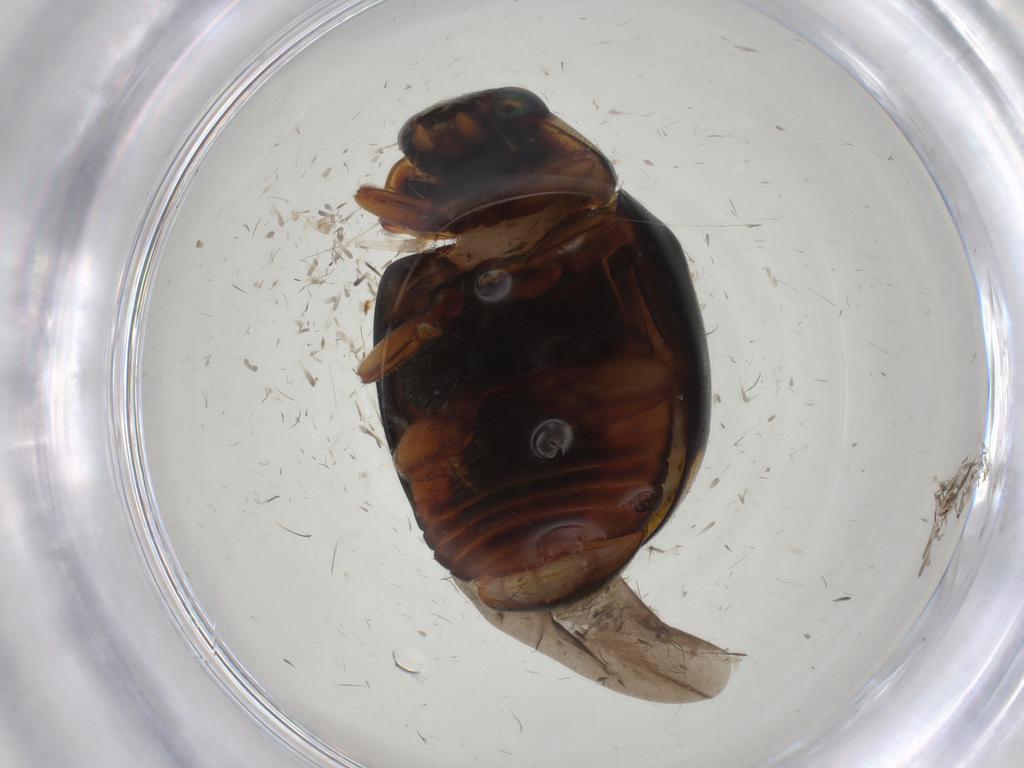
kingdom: Animalia
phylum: Arthropoda
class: Insecta
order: Coleoptera
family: Coccinellidae
